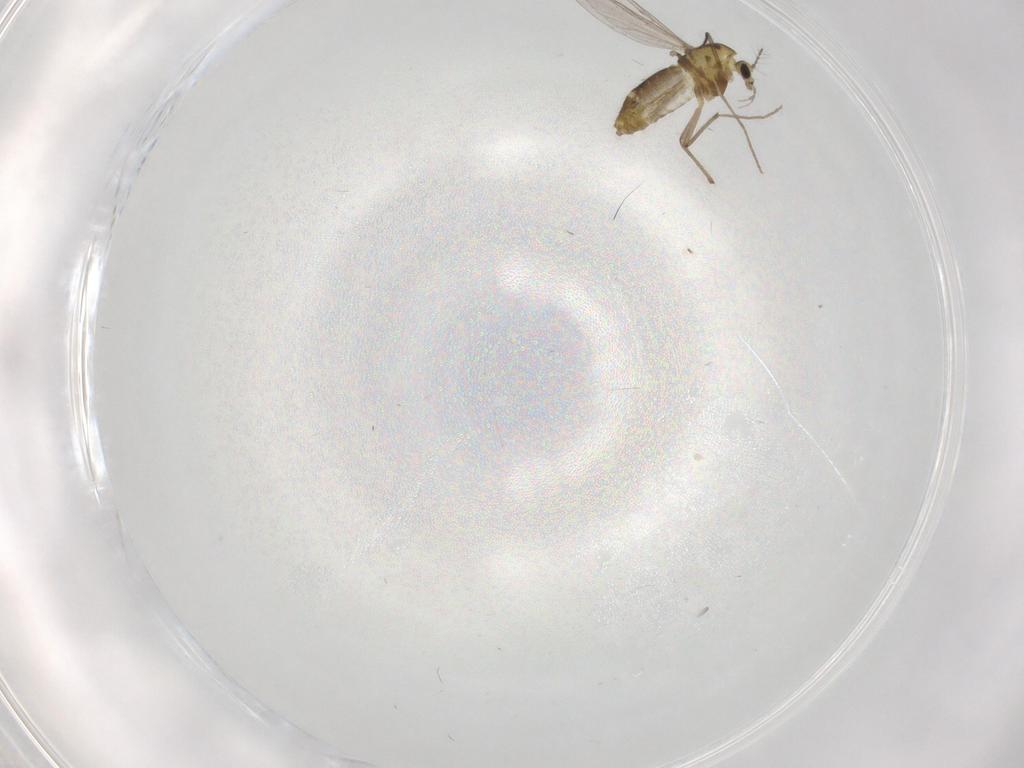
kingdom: Animalia
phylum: Arthropoda
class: Insecta
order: Diptera
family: Chironomidae
